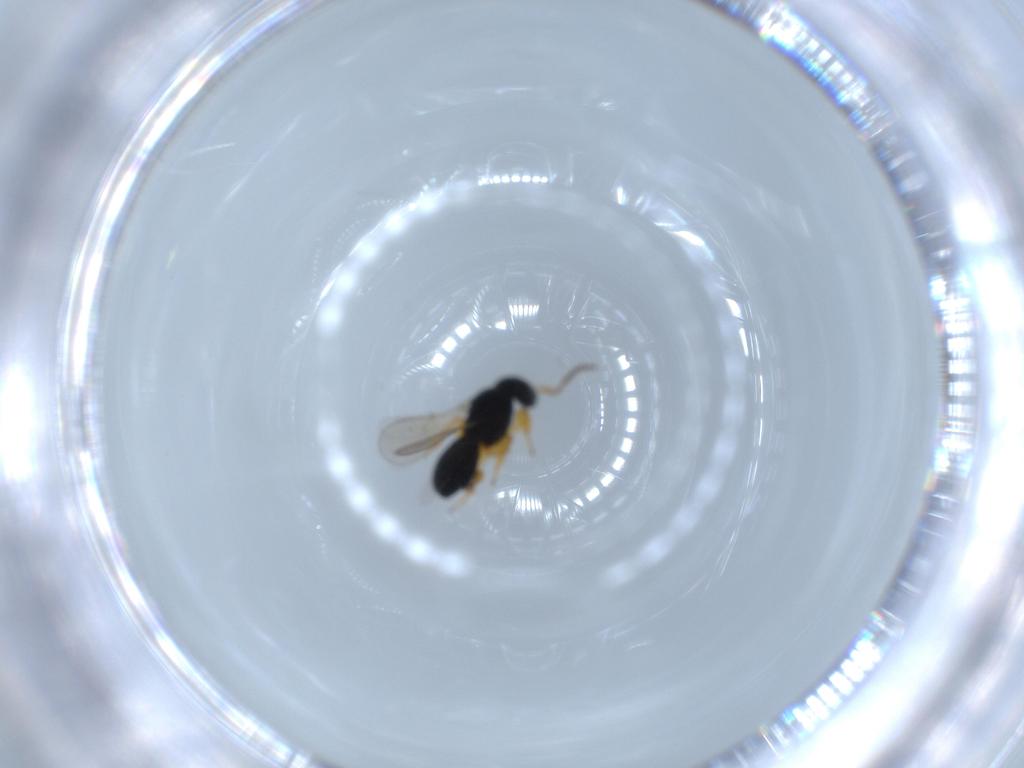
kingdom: Animalia
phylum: Arthropoda
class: Insecta
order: Hymenoptera
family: Scelionidae
